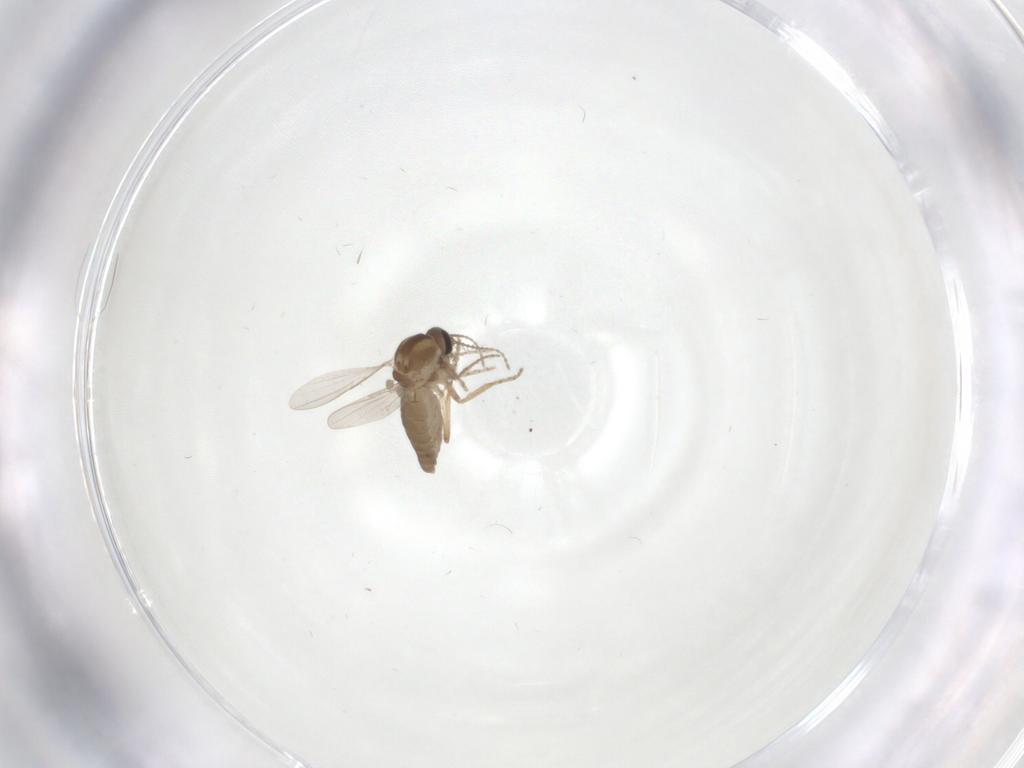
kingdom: Animalia
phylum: Arthropoda
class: Insecta
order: Diptera
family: Ceratopogonidae
